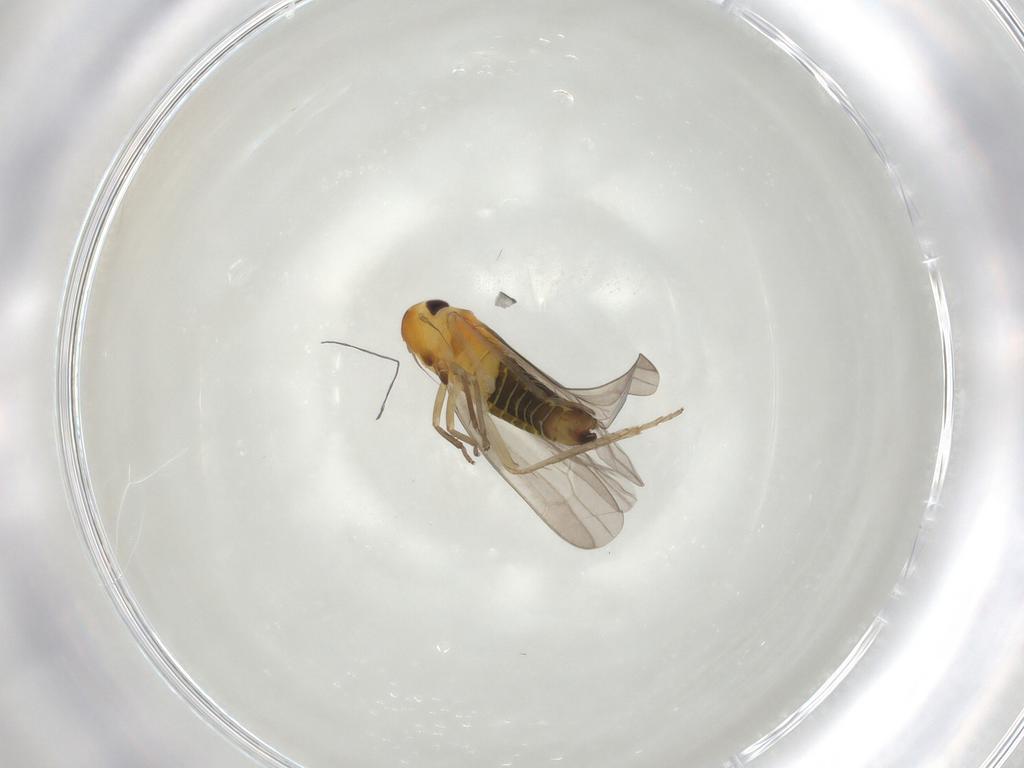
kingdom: Animalia
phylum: Arthropoda
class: Insecta
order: Hemiptera
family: Cicadellidae
